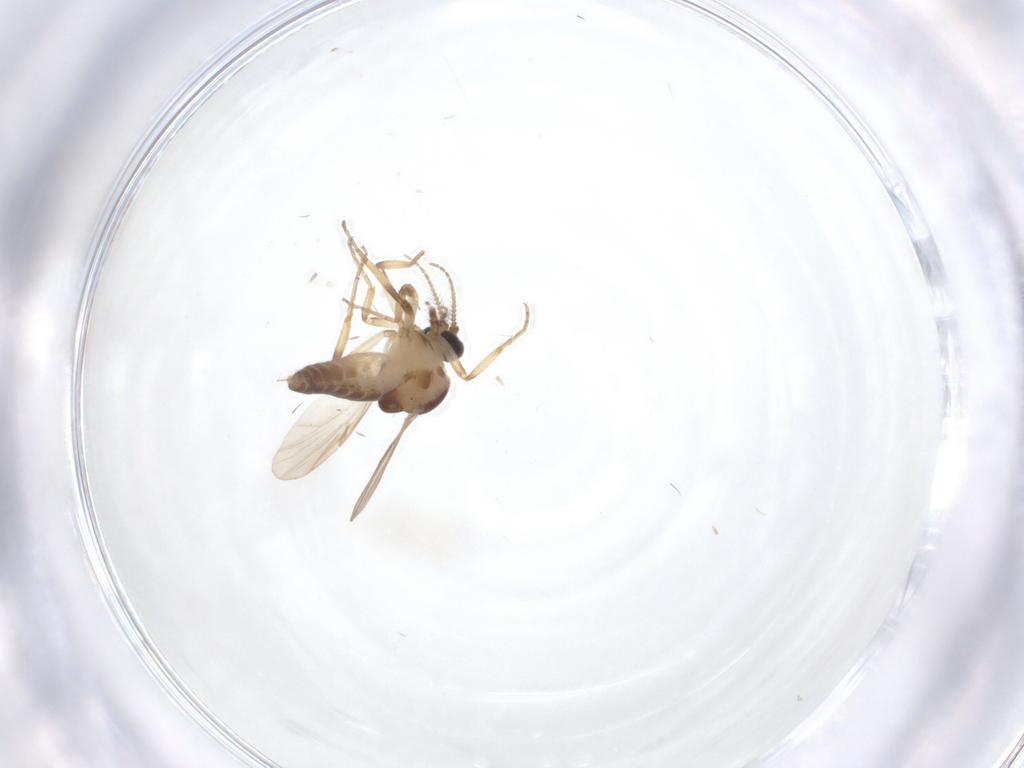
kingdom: Animalia
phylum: Arthropoda
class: Insecta
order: Diptera
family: Ceratopogonidae
